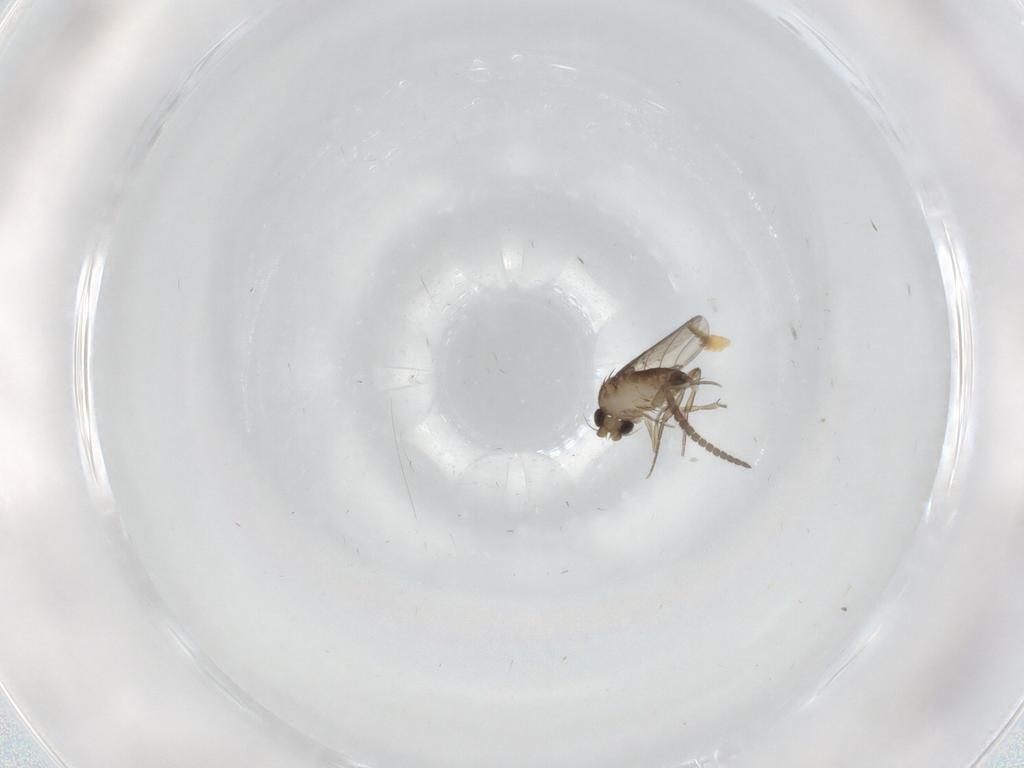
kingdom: Animalia
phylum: Arthropoda
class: Insecta
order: Diptera
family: Phoridae
